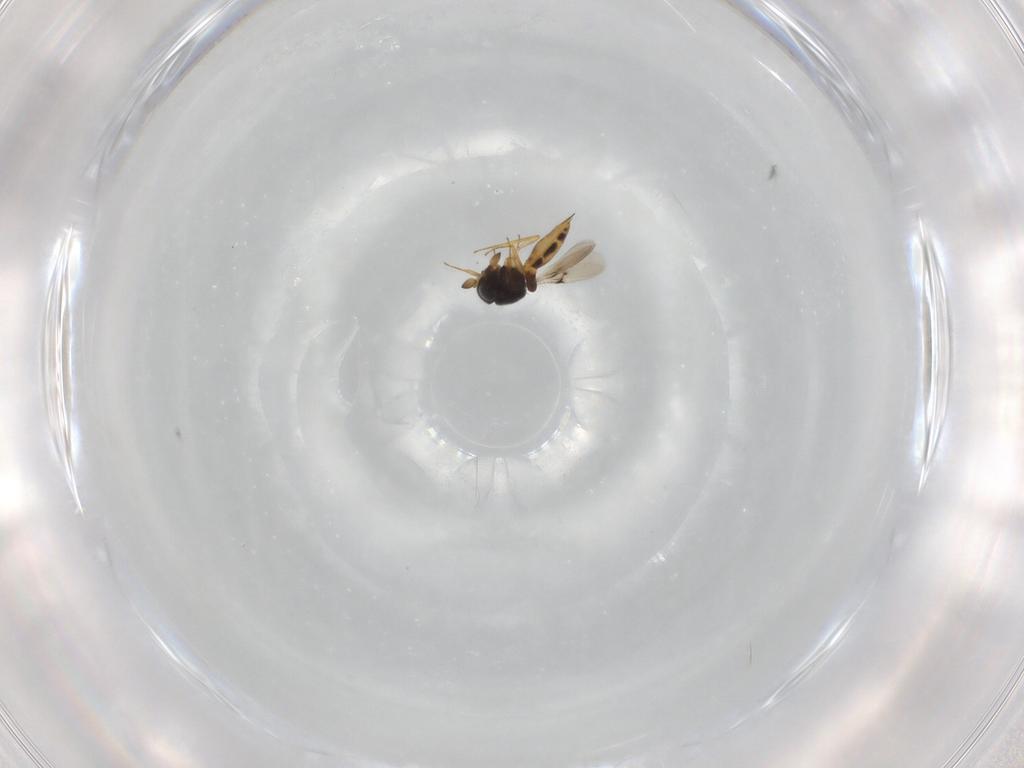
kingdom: Animalia
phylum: Arthropoda
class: Insecta
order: Hymenoptera
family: Scelionidae
